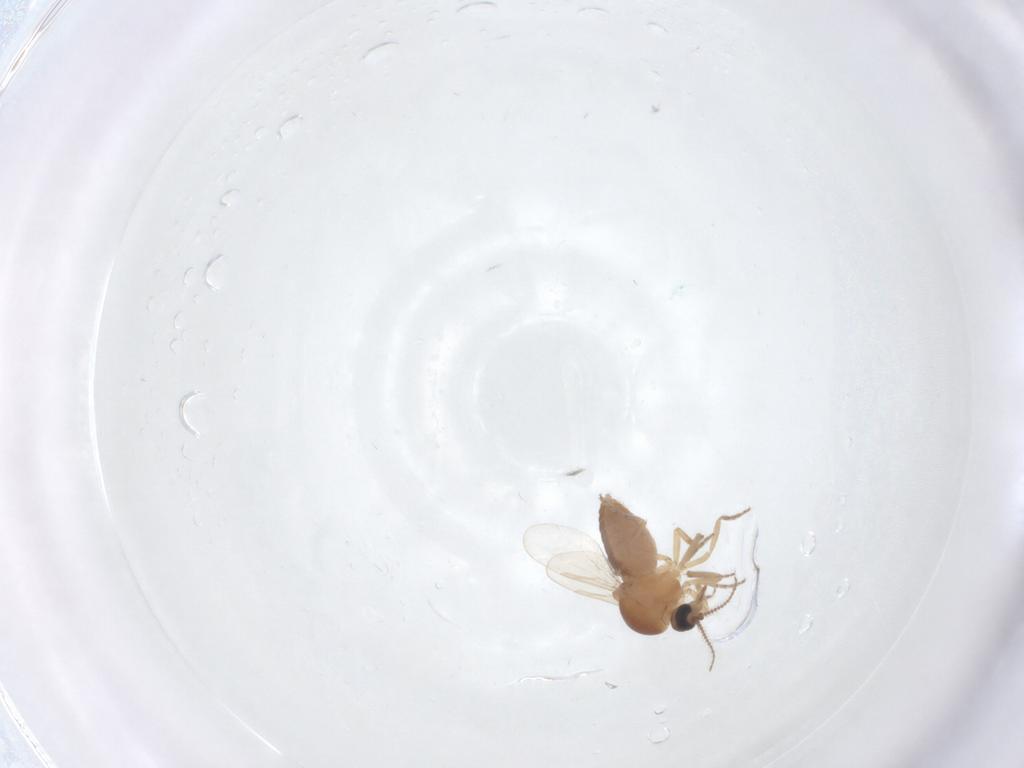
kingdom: Animalia
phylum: Arthropoda
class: Insecta
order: Diptera
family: Ceratopogonidae
